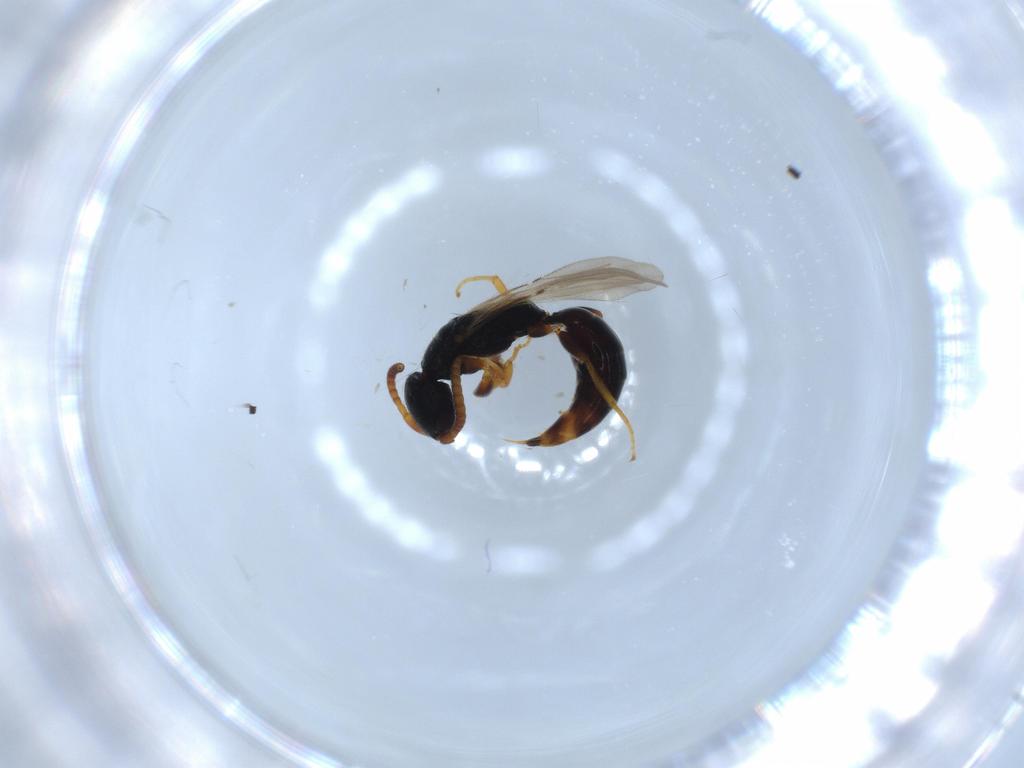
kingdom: Animalia
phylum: Arthropoda
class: Insecta
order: Hymenoptera
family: Bethylidae
